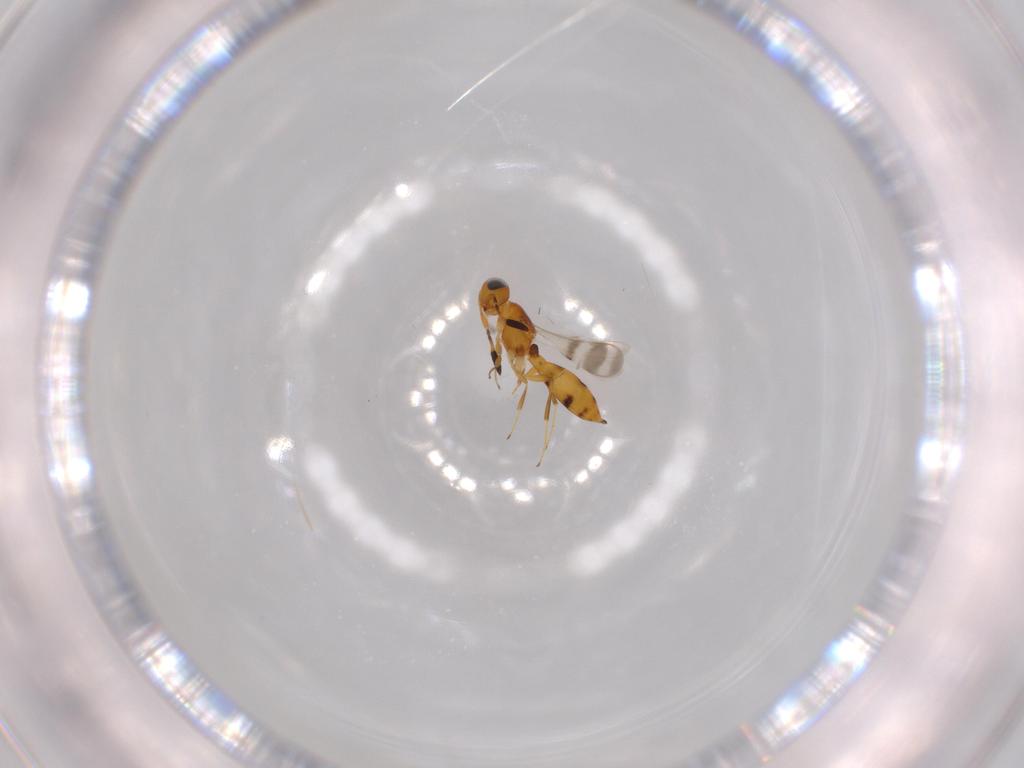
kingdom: Animalia
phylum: Arthropoda
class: Insecta
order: Hymenoptera
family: Scelionidae
